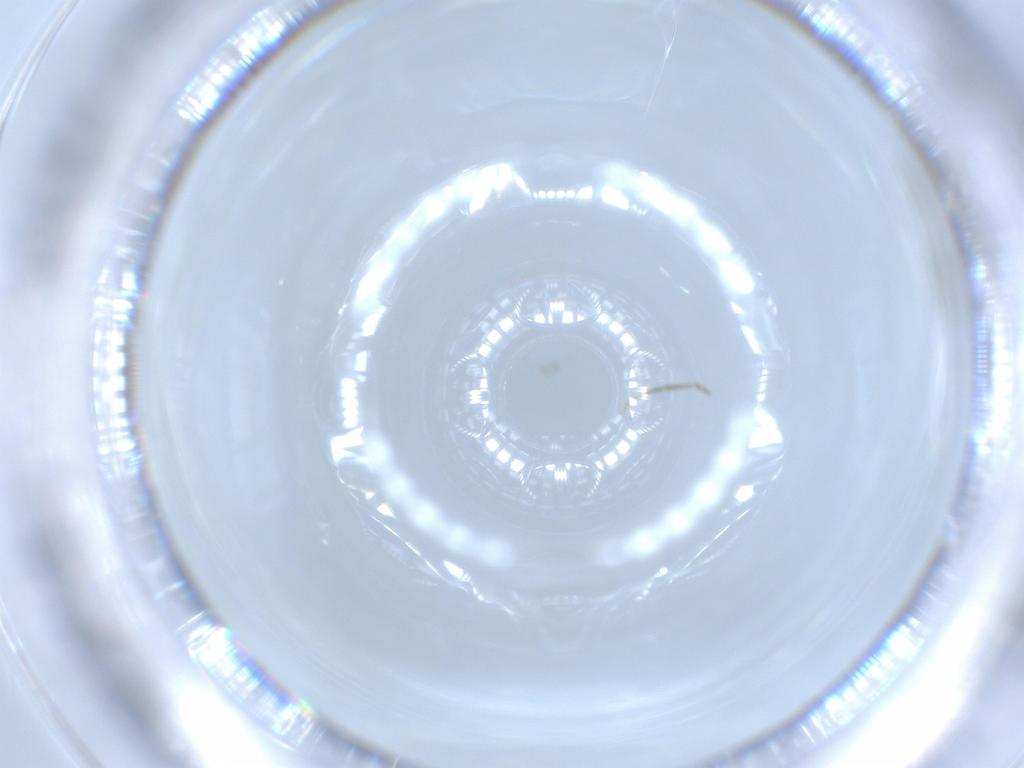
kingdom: Animalia
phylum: Arthropoda
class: Insecta
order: Diptera
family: Psychodidae
